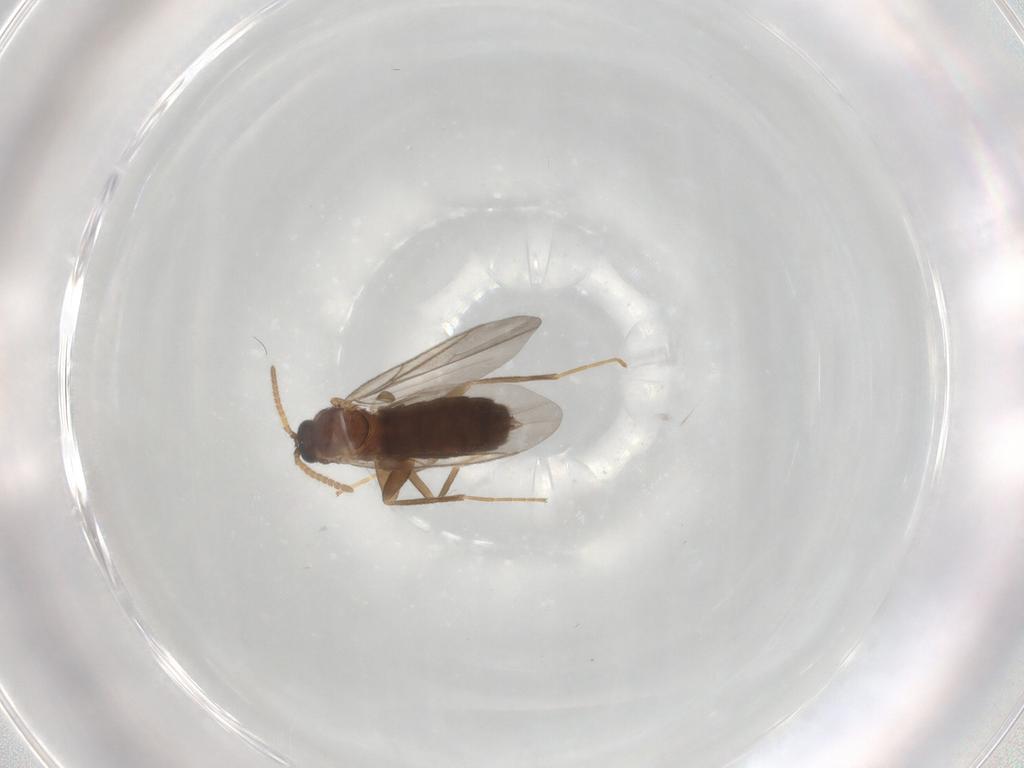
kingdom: Animalia
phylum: Arthropoda
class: Insecta
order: Diptera
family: Scatopsidae
